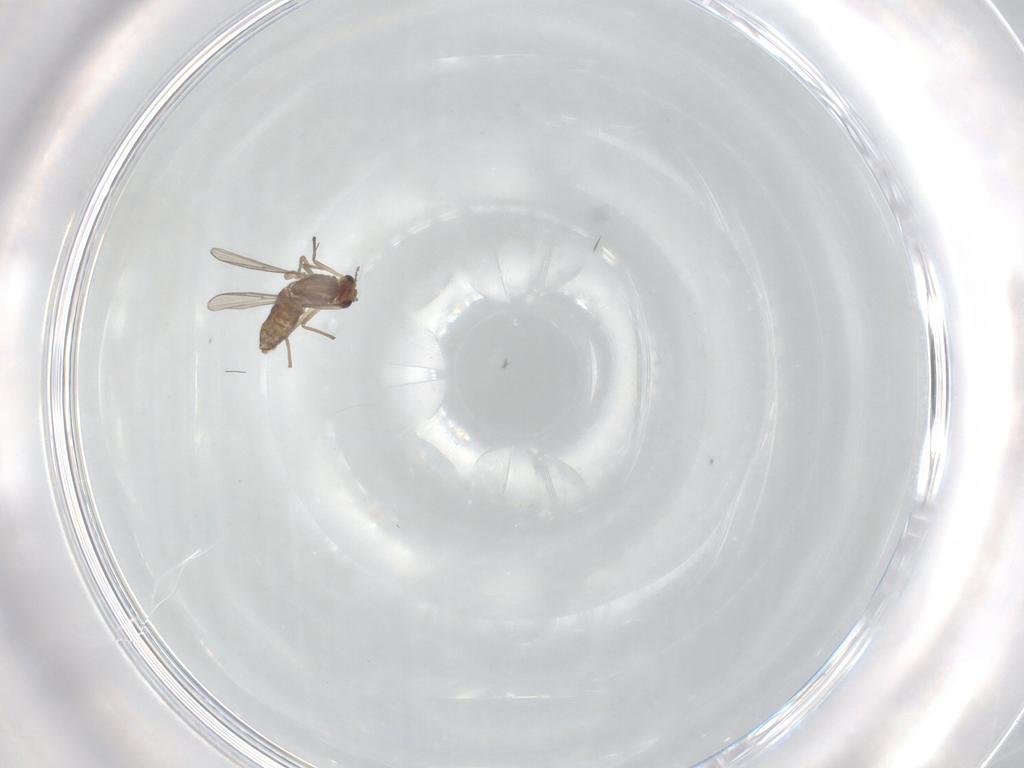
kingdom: Animalia
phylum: Arthropoda
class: Insecta
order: Diptera
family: Chironomidae
